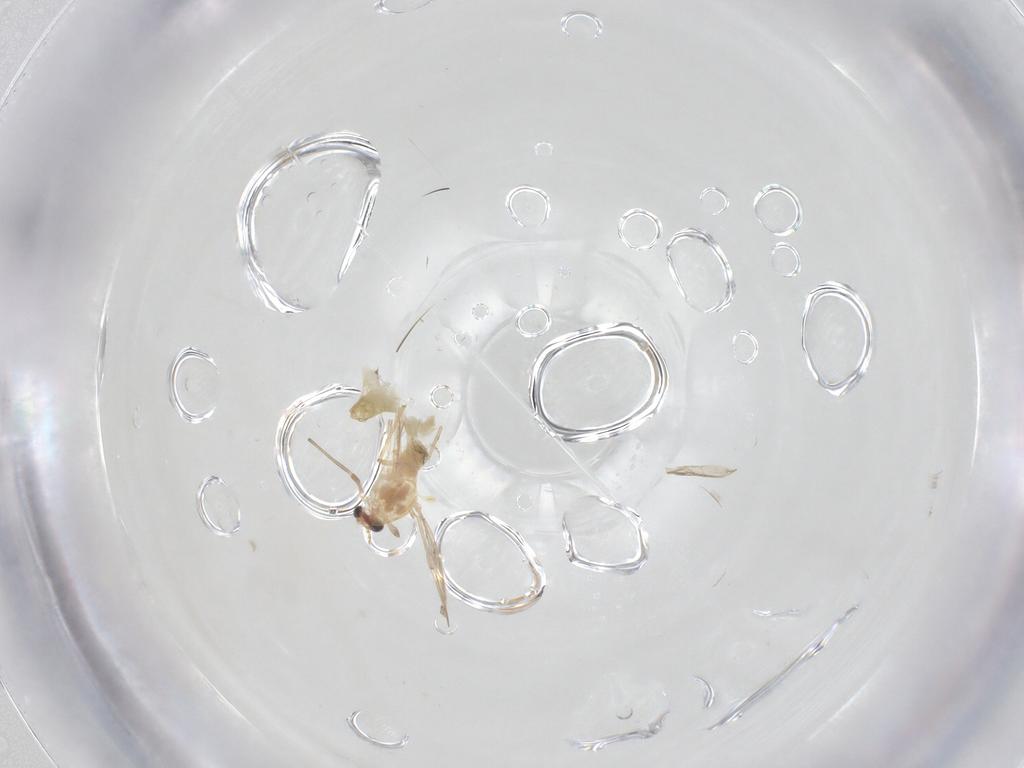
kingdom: Animalia
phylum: Arthropoda
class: Insecta
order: Diptera
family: Chironomidae
